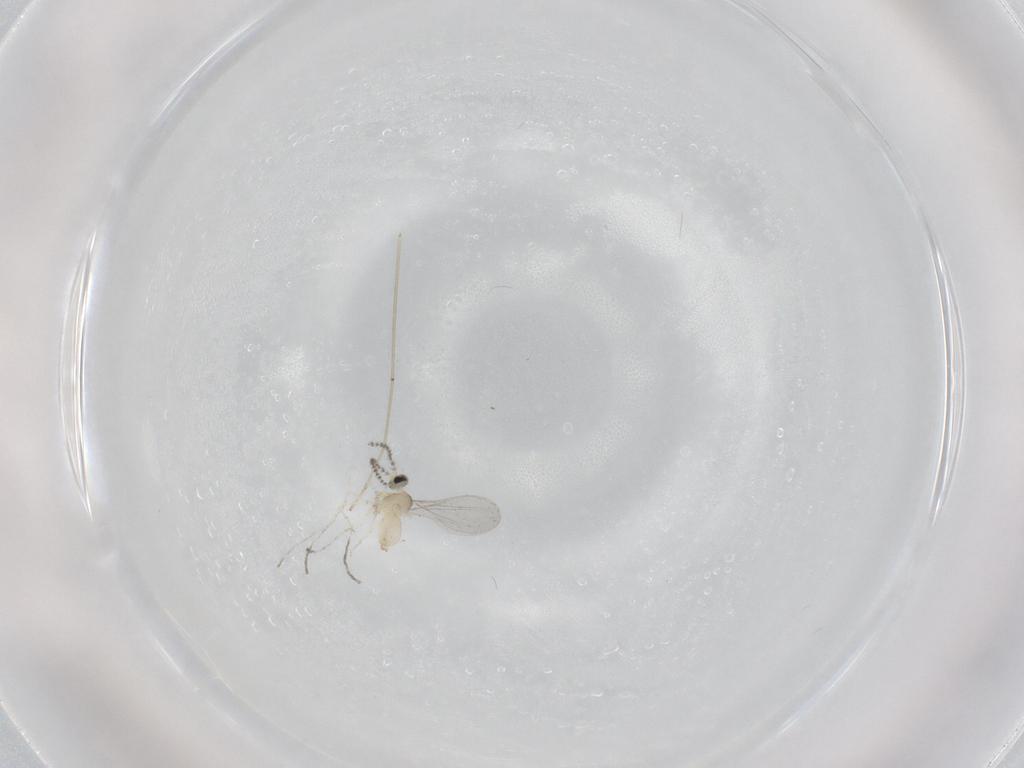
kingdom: Animalia
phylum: Arthropoda
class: Insecta
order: Diptera
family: Cecidomyiidae
